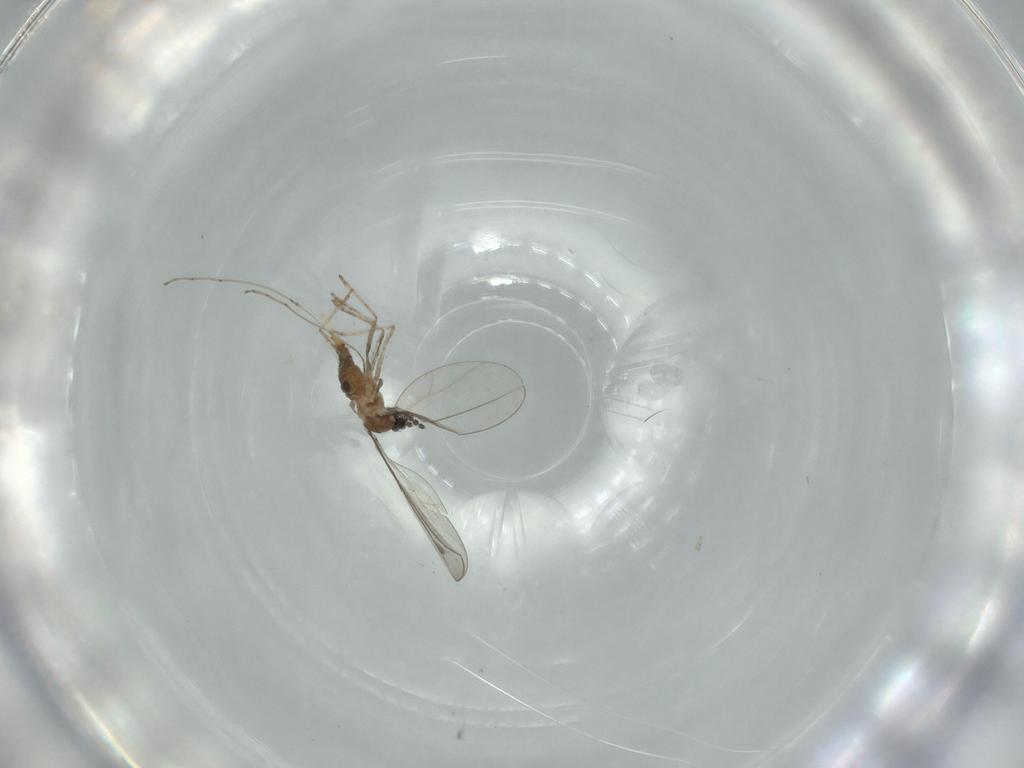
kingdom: Animalia
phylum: Arthropoda
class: Insecta
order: Diptera
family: Cecidomyiidae
